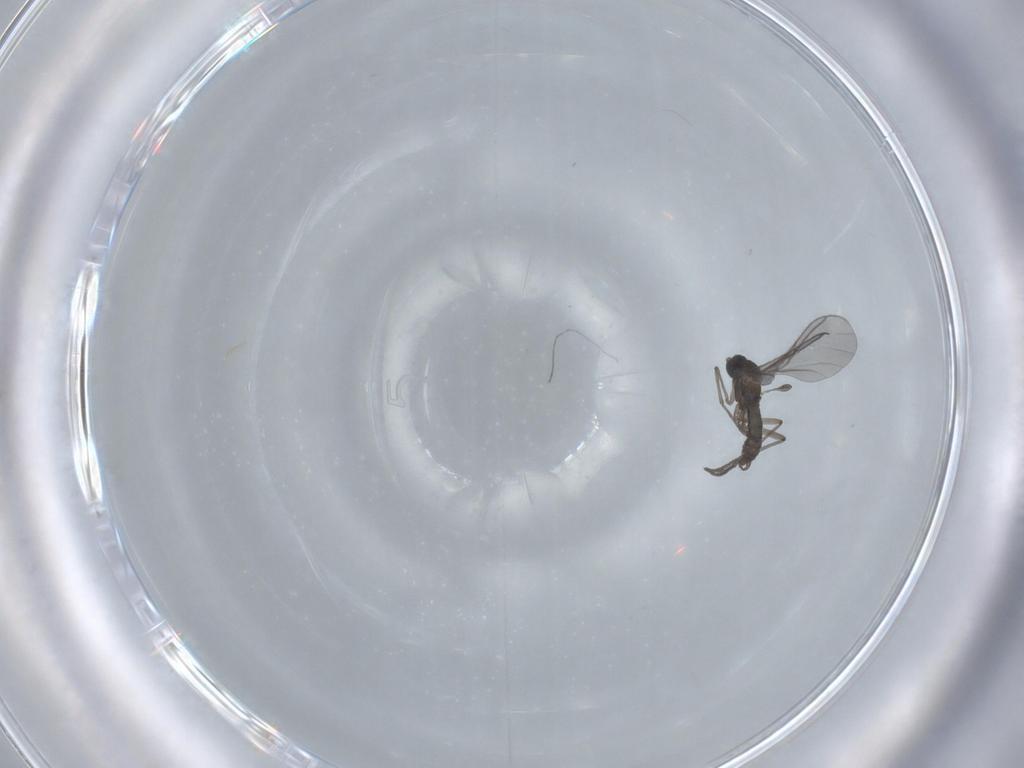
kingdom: Animalia
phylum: Arthropoda
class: Insecta
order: Diptera
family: Sciaridae
